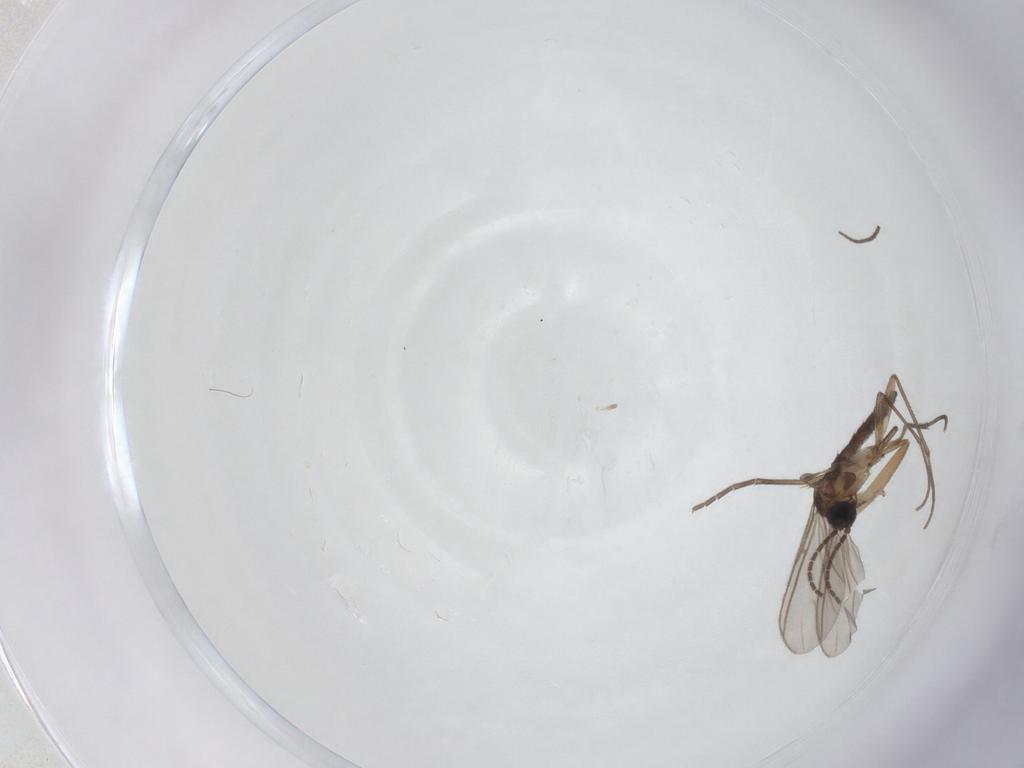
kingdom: Animalia
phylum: Arthropoda
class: Insecta
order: Diptera
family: Sciaridae
